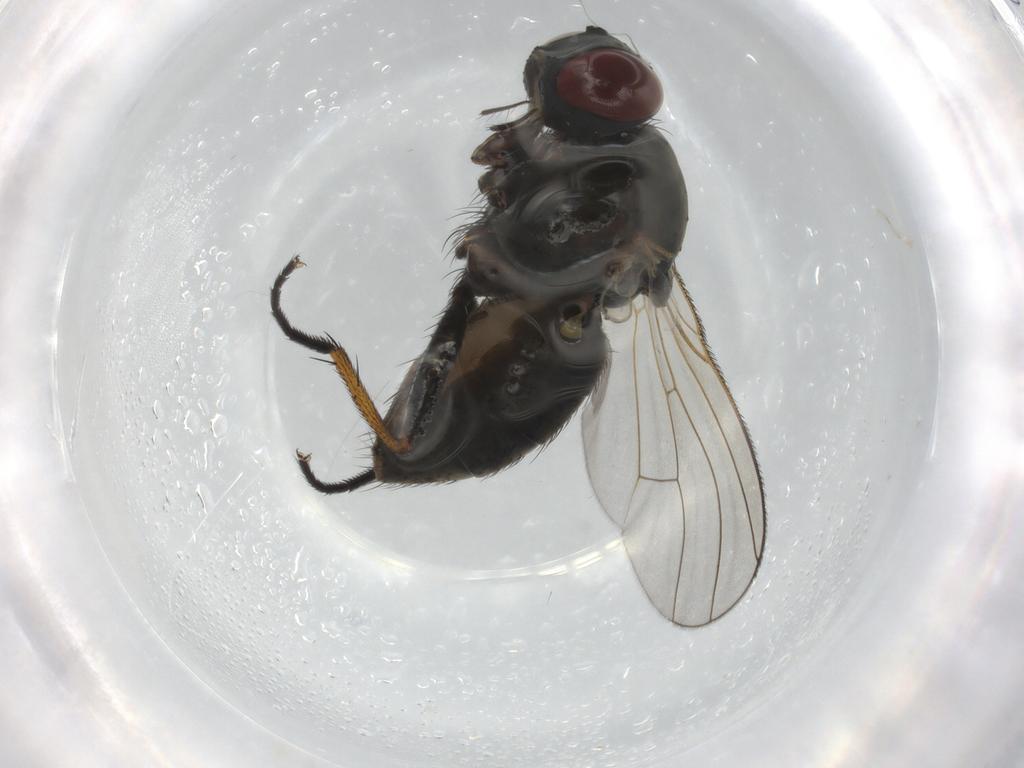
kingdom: Animalia
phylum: Arthropoda
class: Insecta
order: Diptera
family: Muscidae
